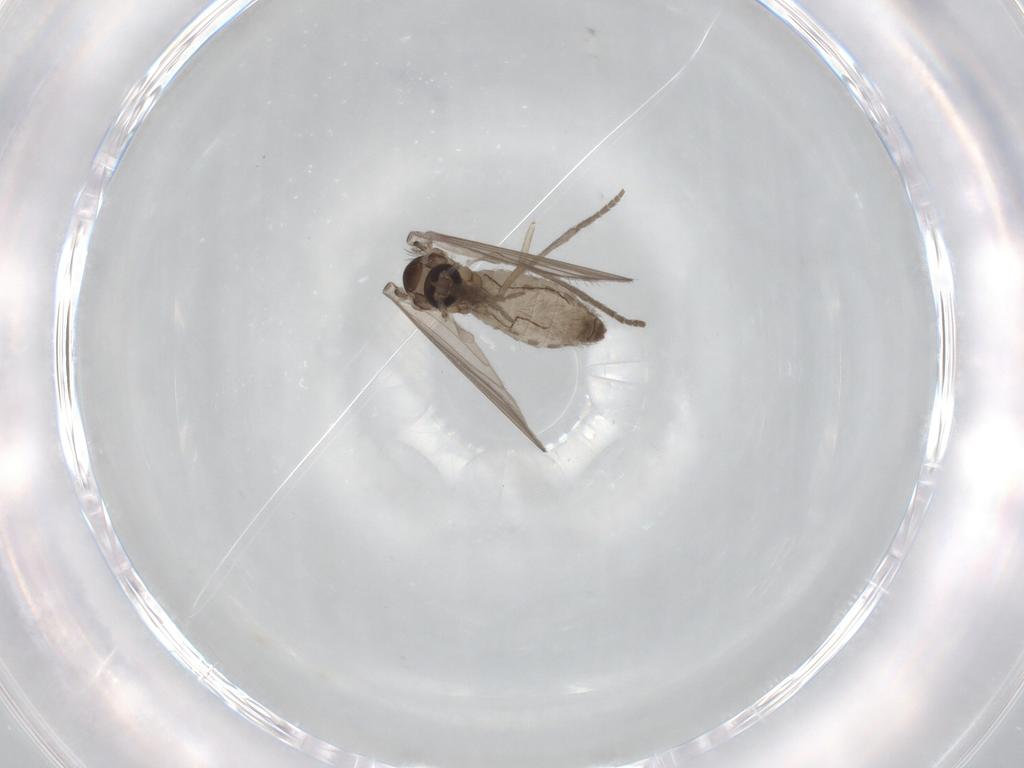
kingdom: Animalia
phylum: Arthropoda
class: Insecta
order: Diptera
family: Psychodidae
